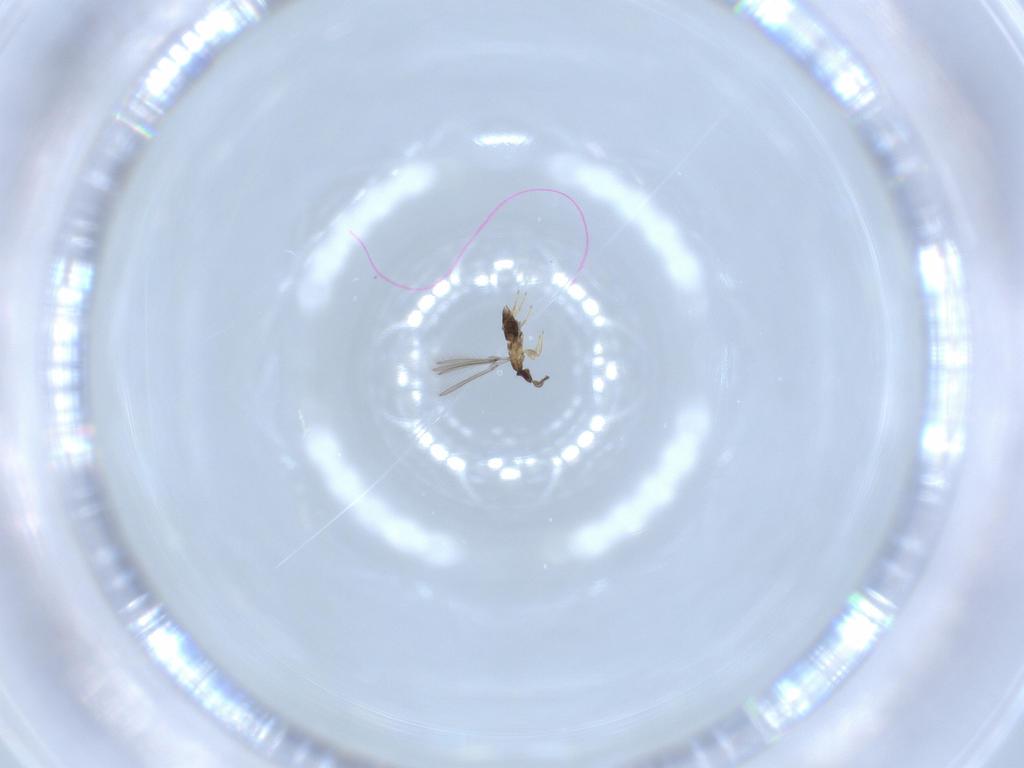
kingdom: Animalia
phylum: Arthropoda
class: Insecta
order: Hymenoptera
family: Mymaridae
